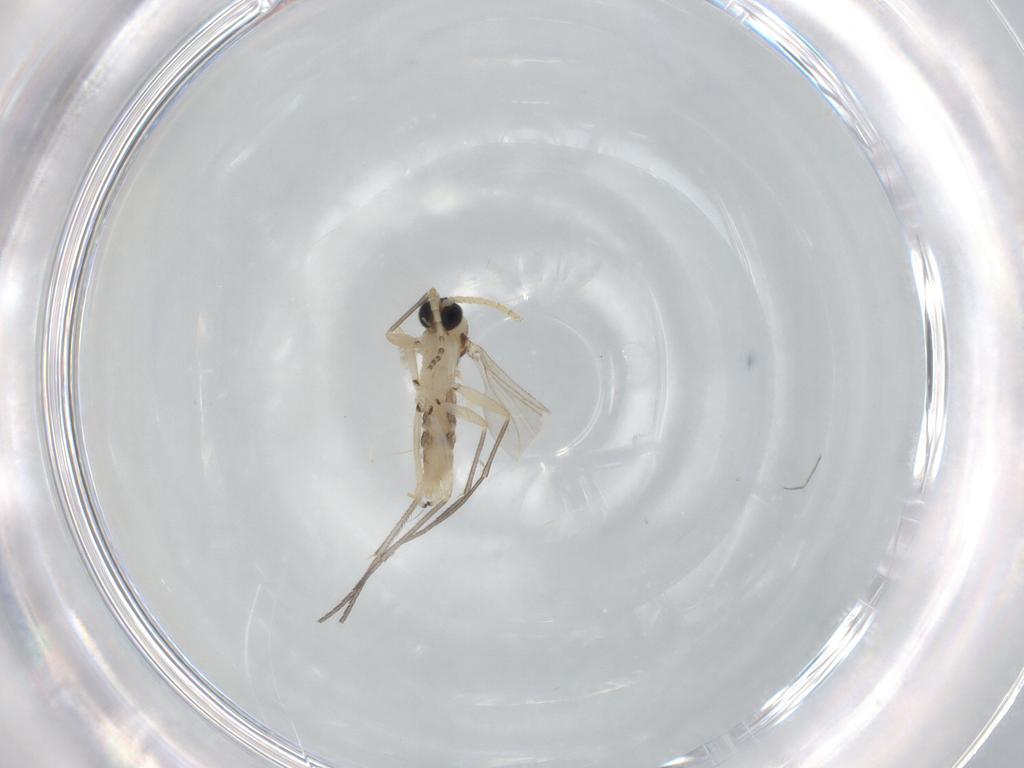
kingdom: Animalia
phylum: Arthropoda
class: Insecta
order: Diptera
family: Sciaridae
